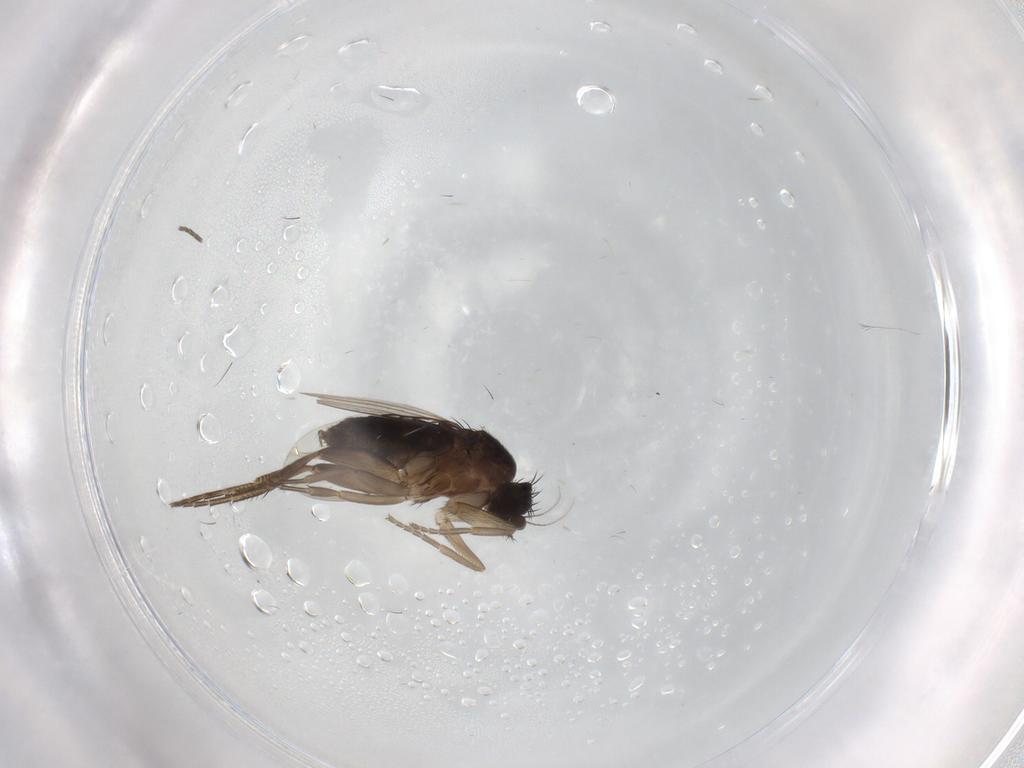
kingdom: Animalia
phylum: Arthropoda
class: Insecta
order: Diptera
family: Phoridae
